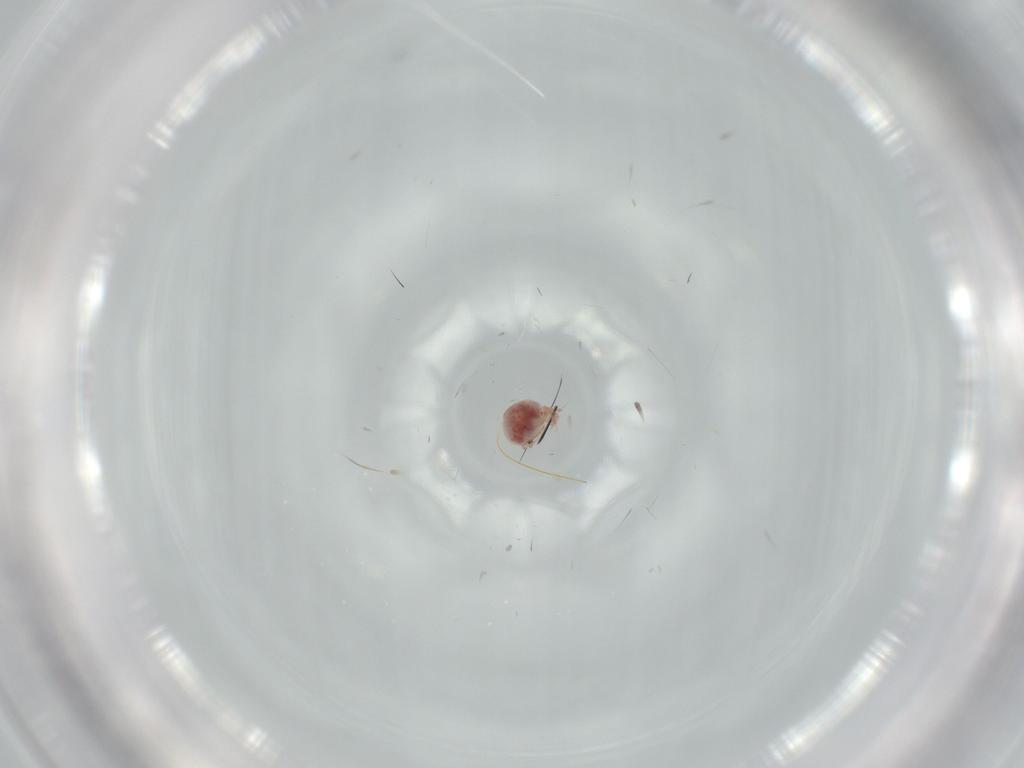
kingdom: Animalia
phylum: Arthropoda
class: Arachnida
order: Trombidiformes
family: Pionidae
